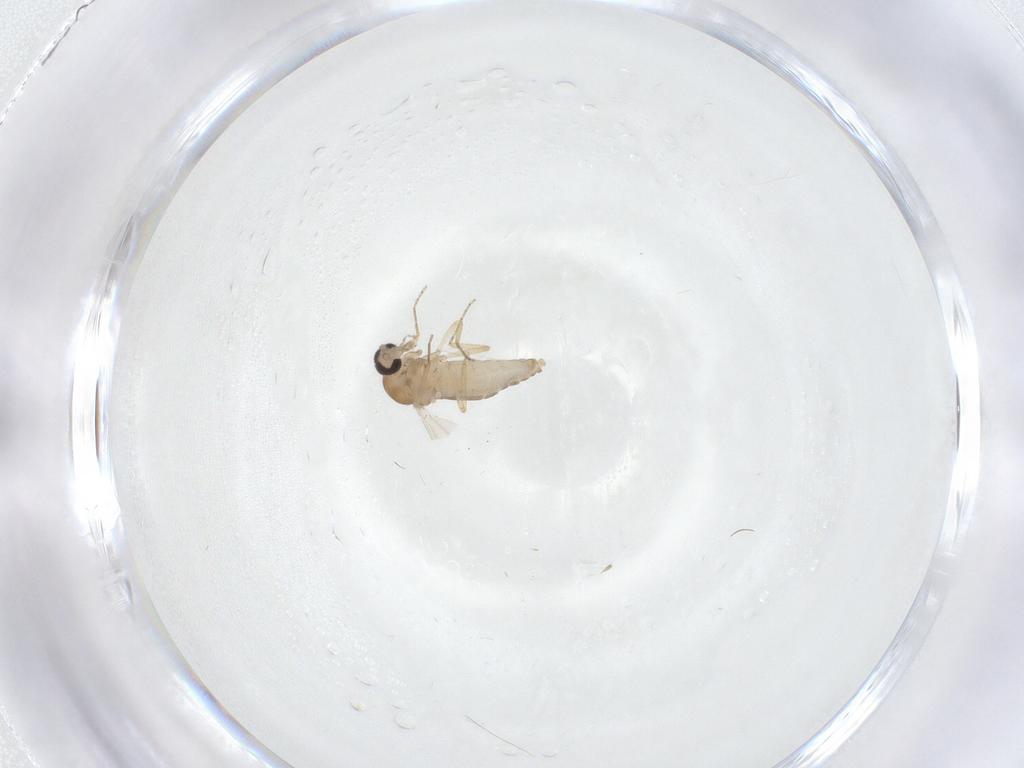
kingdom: Animalia
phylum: Arthropoda
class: Insecta
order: Diptera
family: Ceratopogonidae
